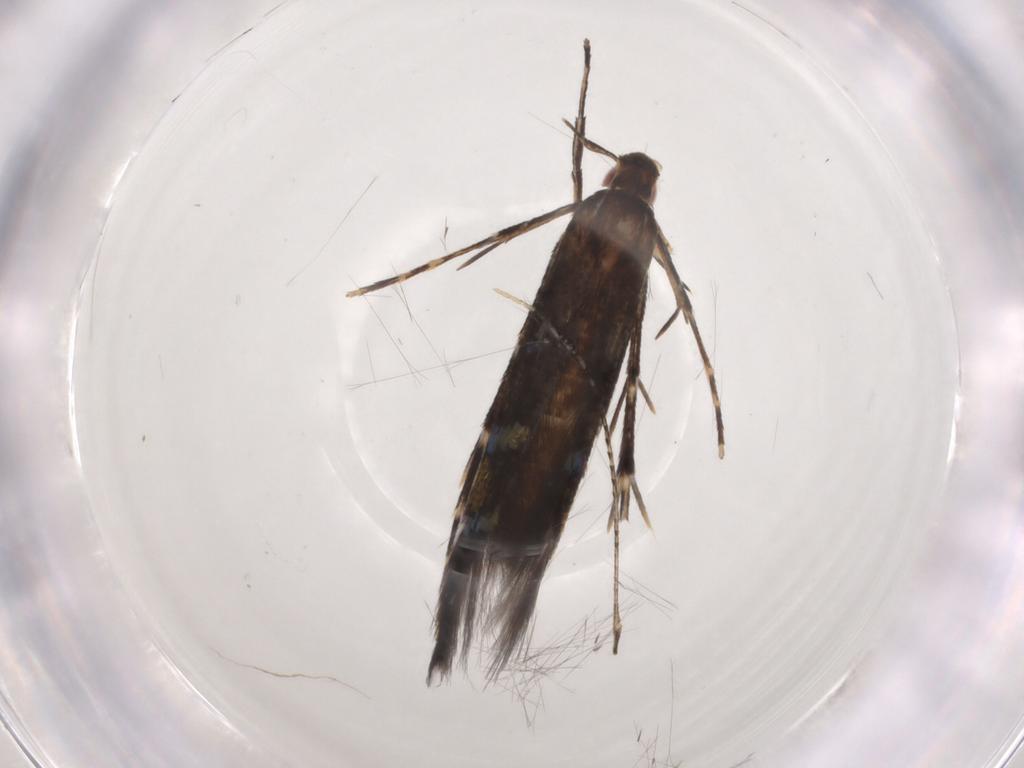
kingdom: Animalia
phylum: Arthropoda
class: Insecta
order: Lepidoptera
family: Cosmopterigidae
